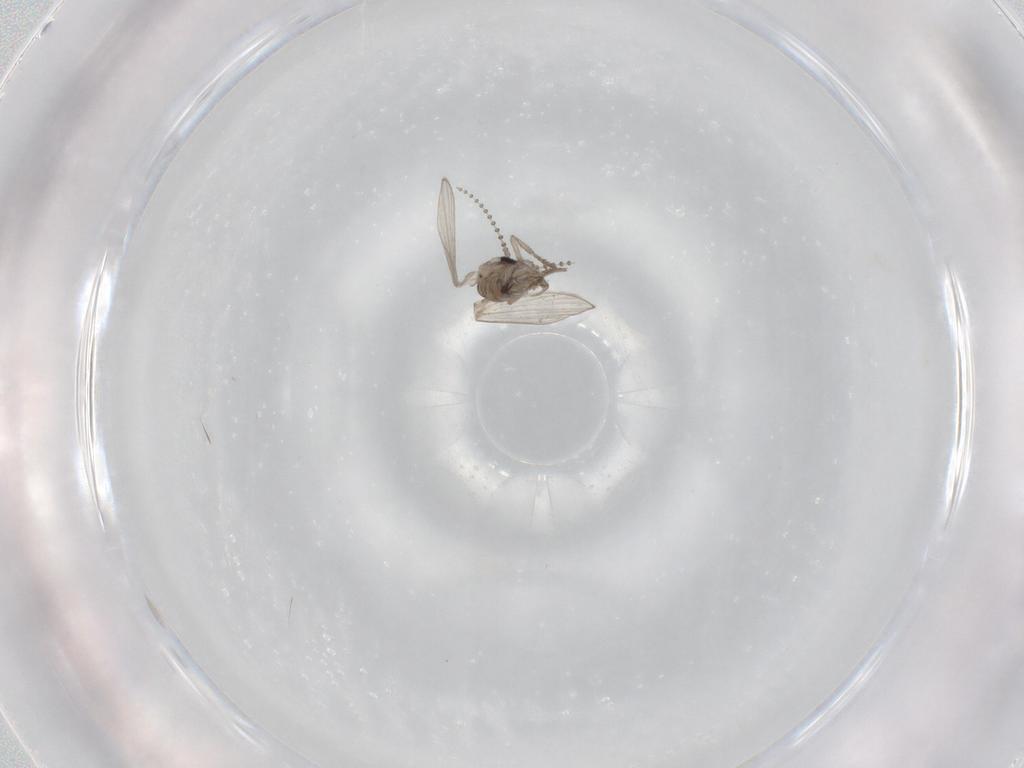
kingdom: Animalia
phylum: Arthropoda
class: Insecta
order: Diptera
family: Psychodidae
